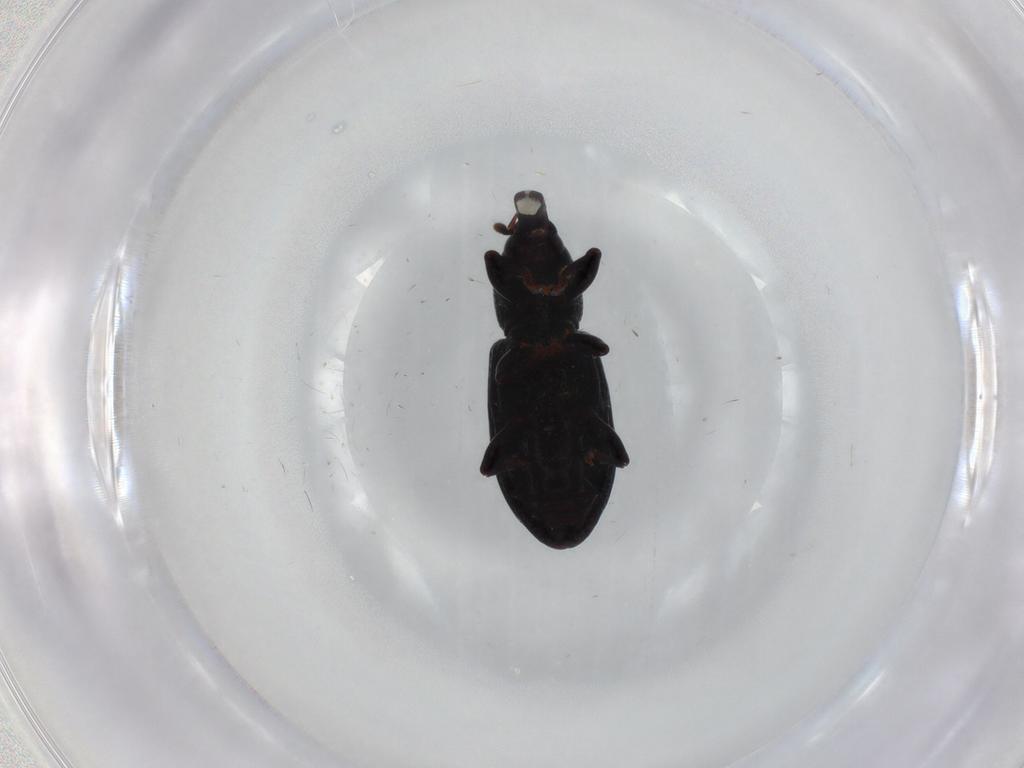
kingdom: Animalia
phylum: Arthropoda
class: Insecta
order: Coleoptera
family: Curculionidae
